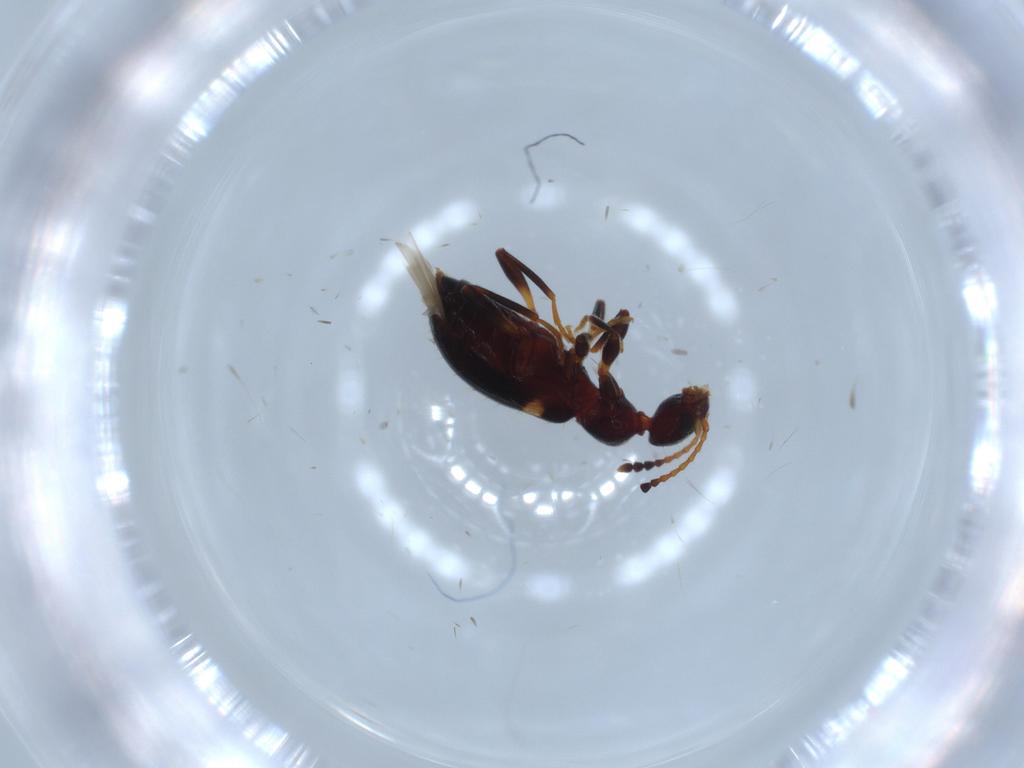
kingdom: Animalia
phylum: Arthropoda
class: Insecta
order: Coleoptera
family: Anthicidae
